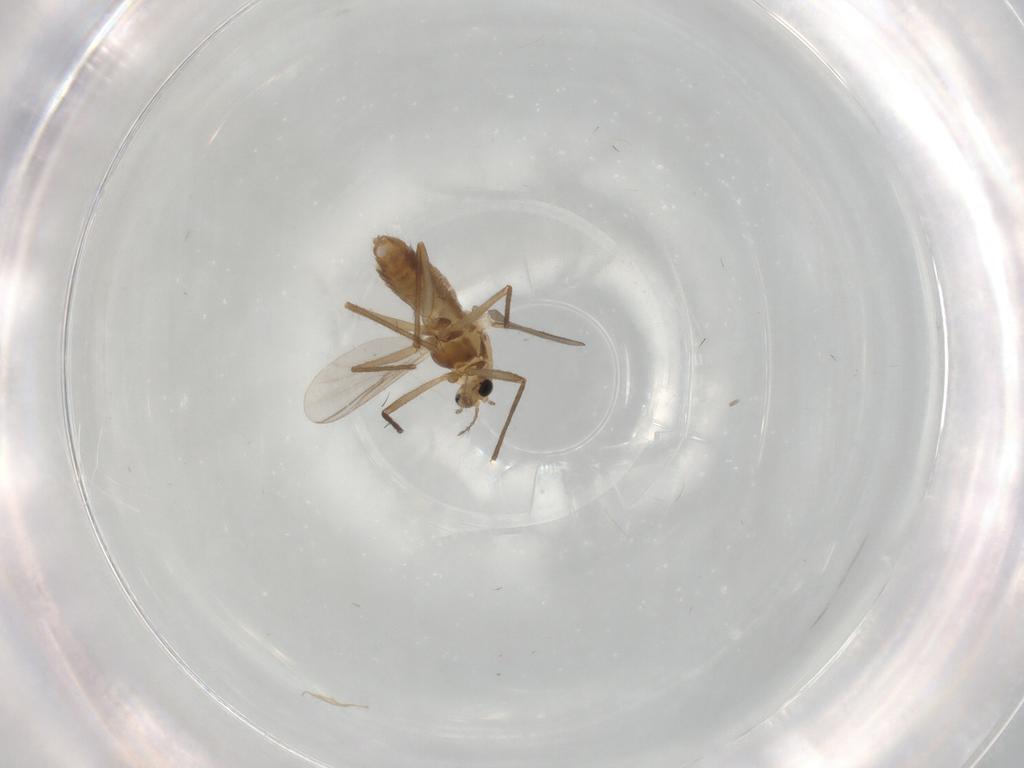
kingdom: Animalia
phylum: Arthropoda
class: Insecta
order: Diptera
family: Chironomidae
